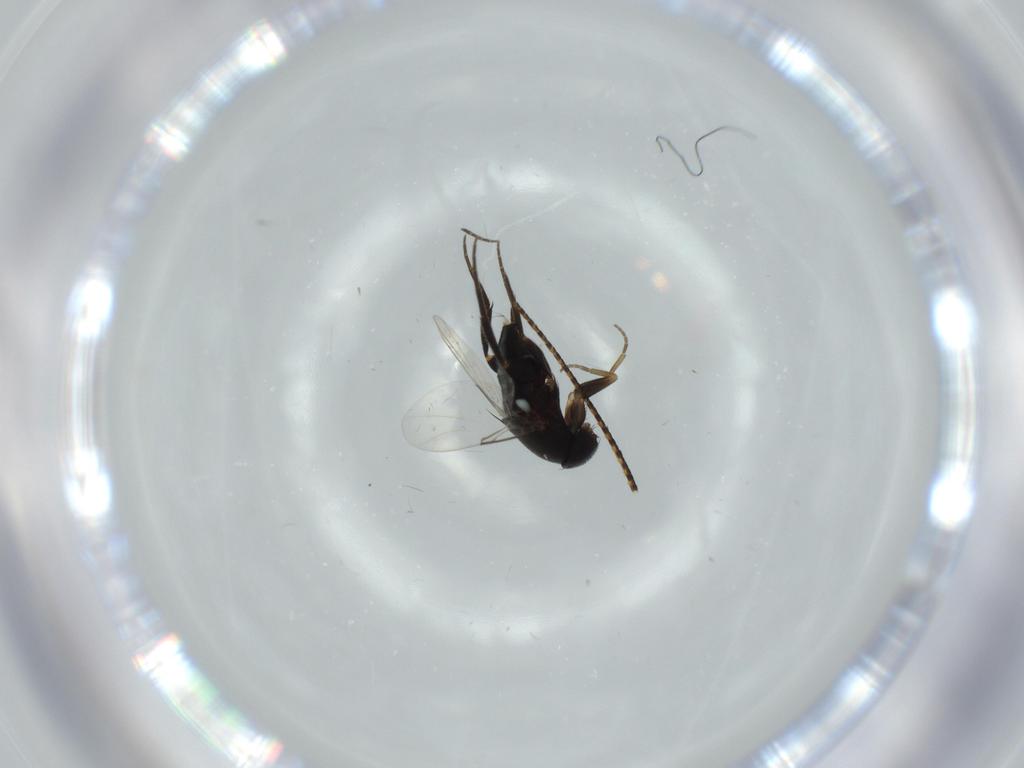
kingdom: Animalia
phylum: Arthropoda
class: Insecta
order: Diptera
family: Phoridae
